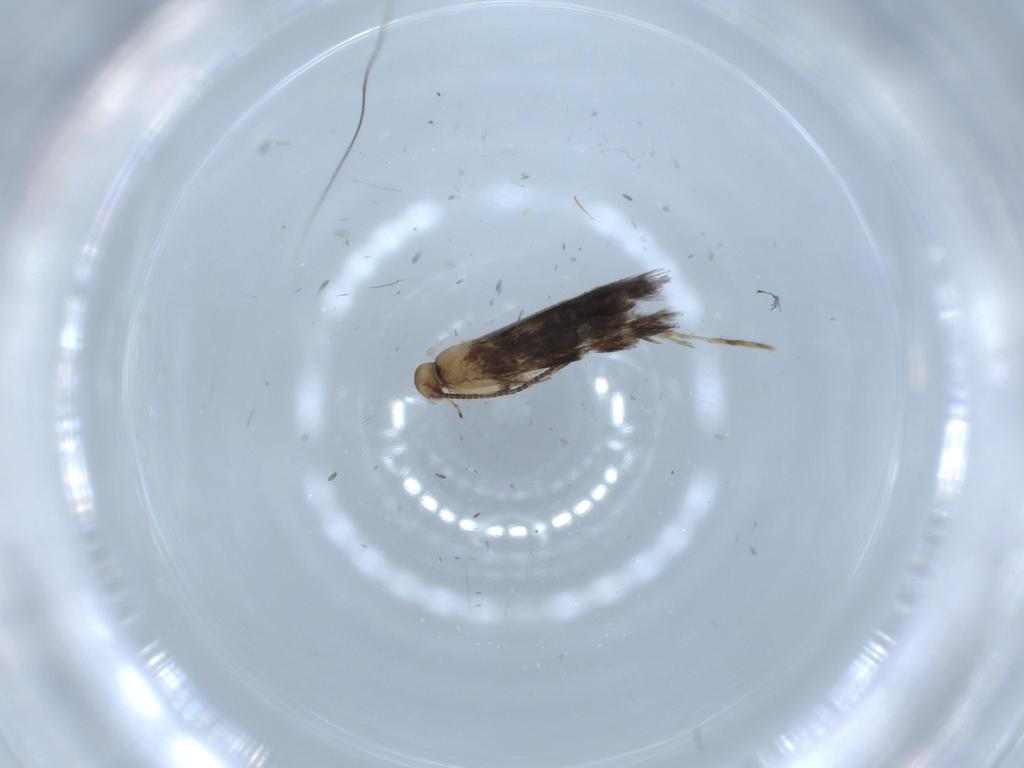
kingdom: Animalia
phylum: Arthropoda
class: Insecta
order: Lepidoptera
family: Gracillariidae
